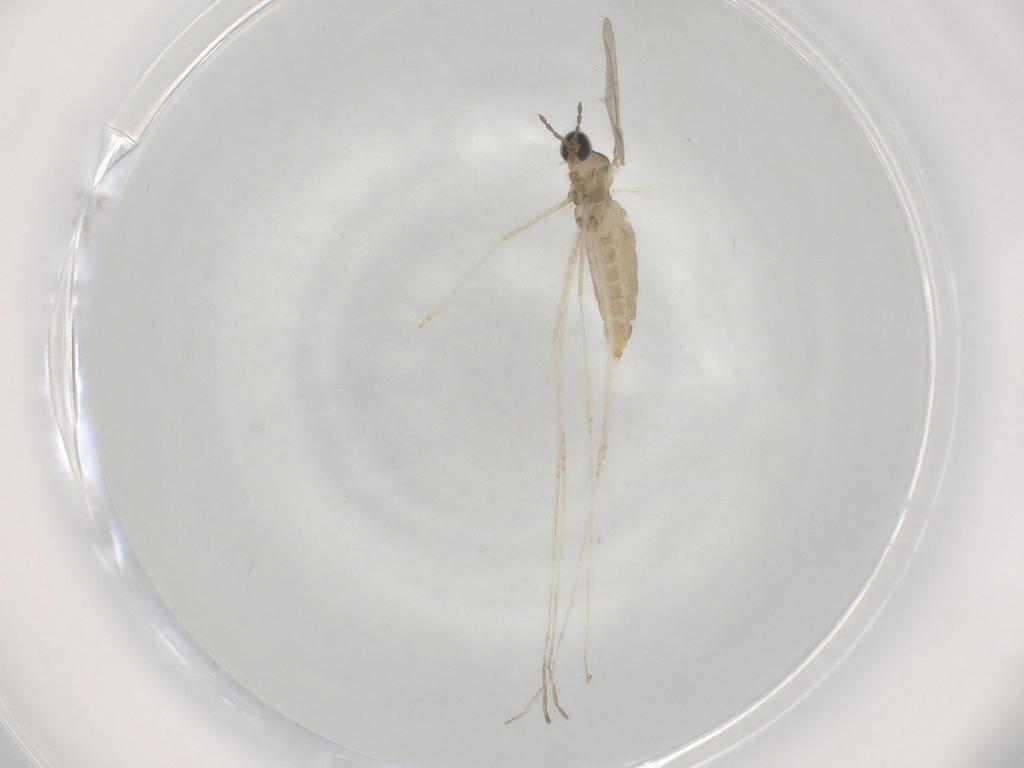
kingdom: Animalia
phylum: Arthropoda
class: Insecta
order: Diptera
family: Cecidomyiidae
